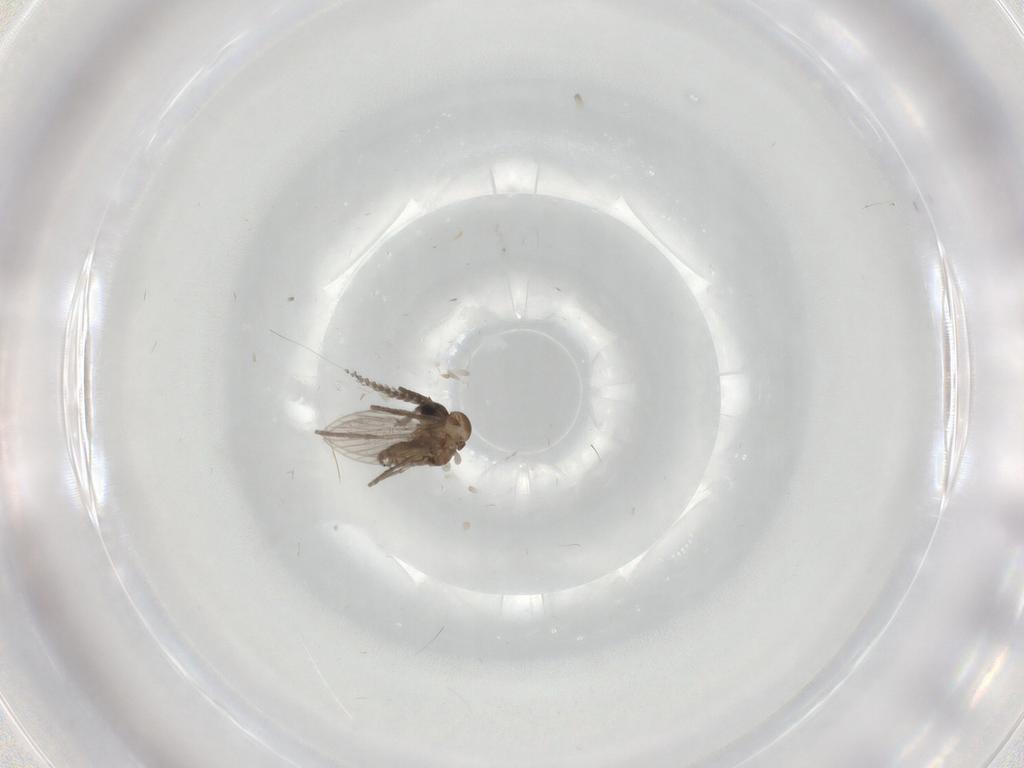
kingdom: Animalia
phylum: Arthropoda
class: Insecta
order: Diptera
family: Psychodidae
